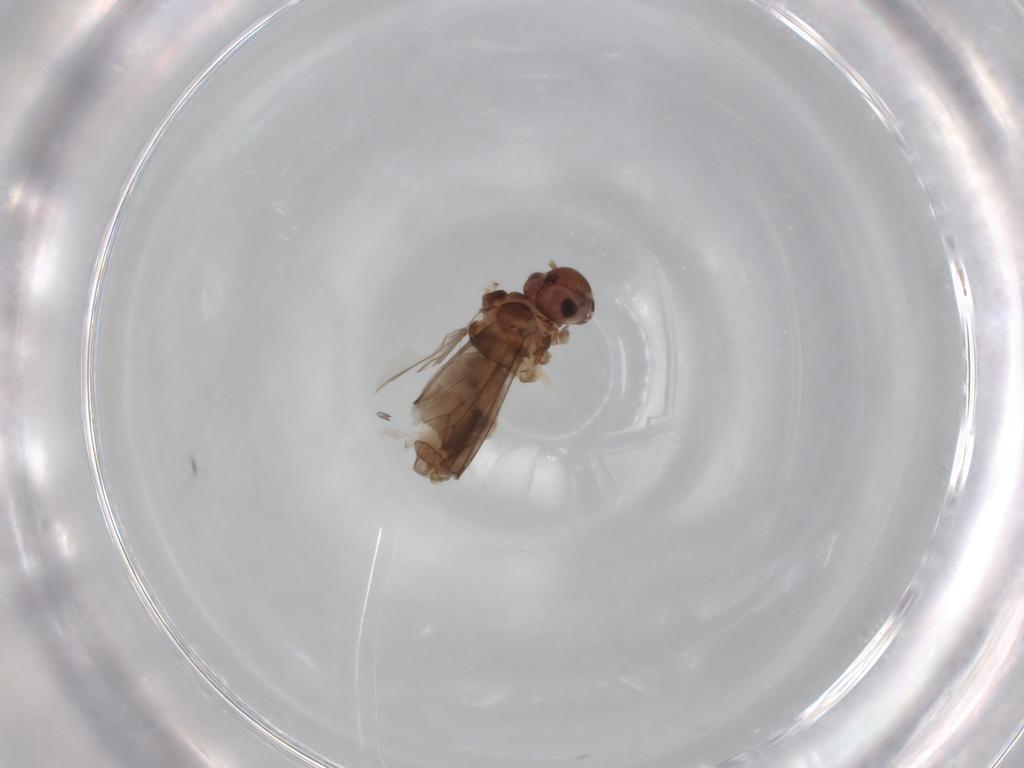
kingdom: Animalia
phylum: Arthropoda
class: Insecta
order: Psocodea
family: Peripsocidae
